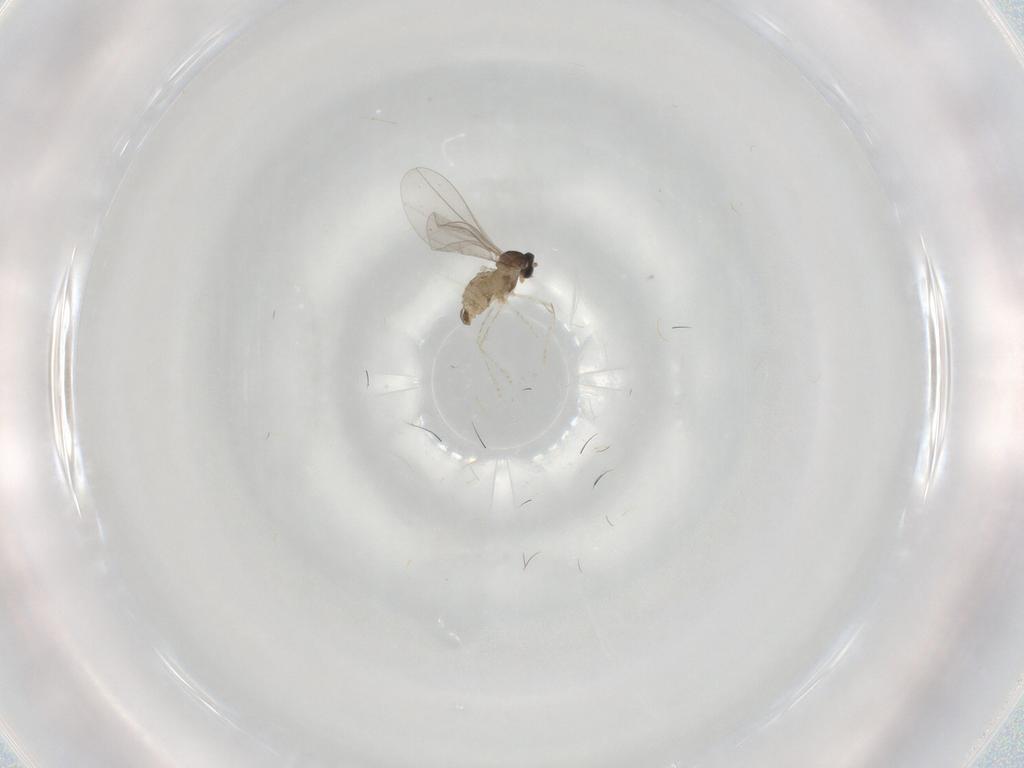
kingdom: Animalia
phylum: Arthropoda
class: Insecta
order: Diptera
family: Cecidomyiidae
